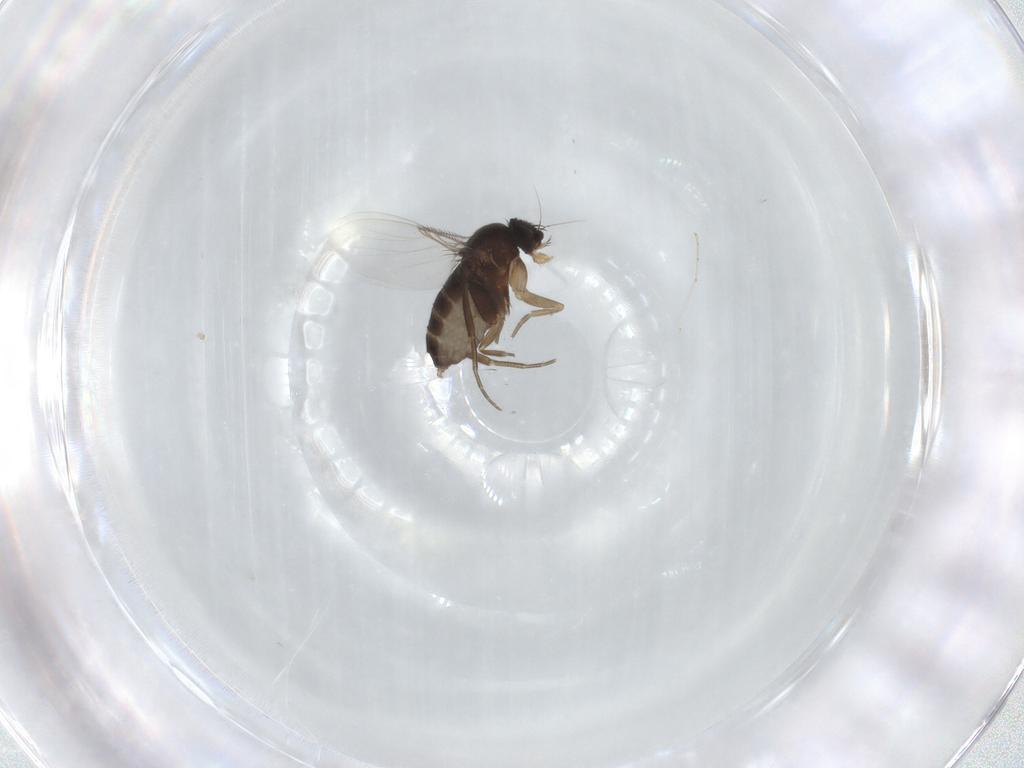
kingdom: Animalia
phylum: Arthropoda
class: Insecta
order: Diptera
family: Phoridae
